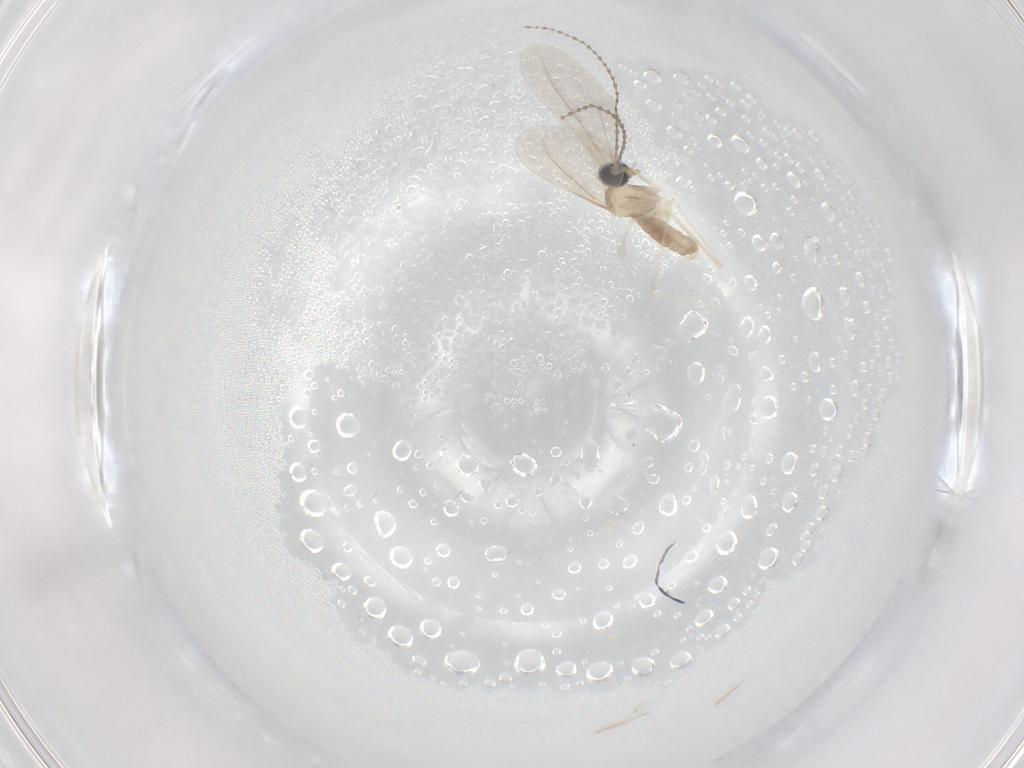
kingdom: Animalia
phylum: Arthropoda
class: Insecta
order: Diptera
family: Cecidomyiidae
